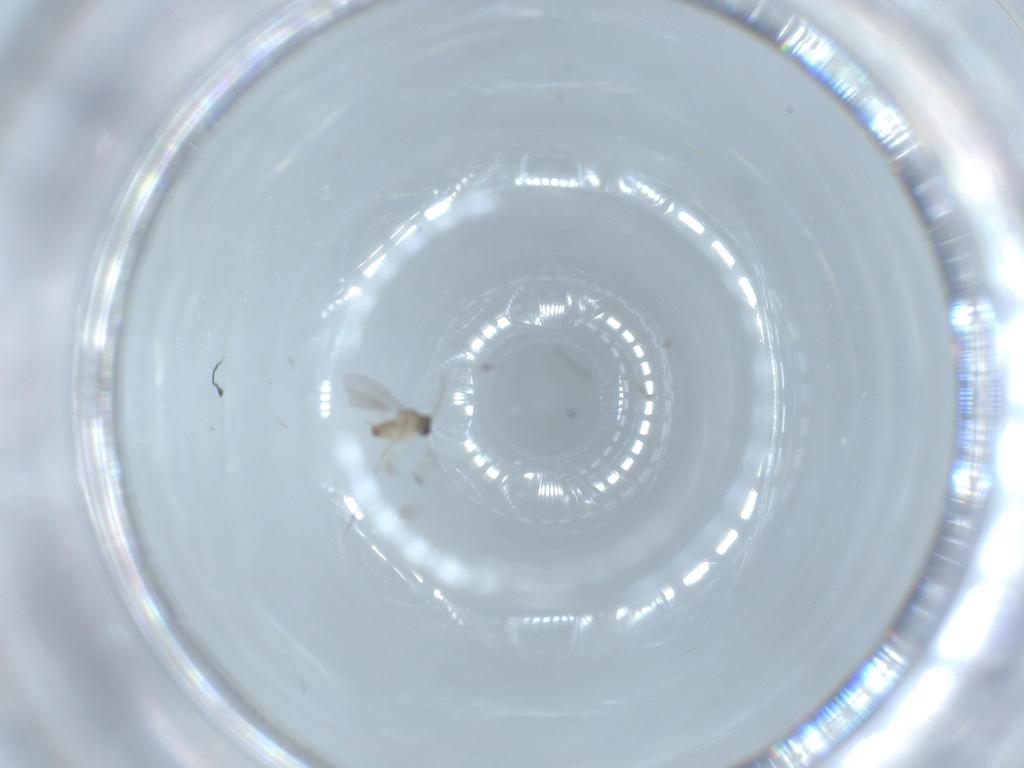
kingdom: Animalia
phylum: Arthropoda
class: Insecta
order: Diptera
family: Cecidomyiidae
